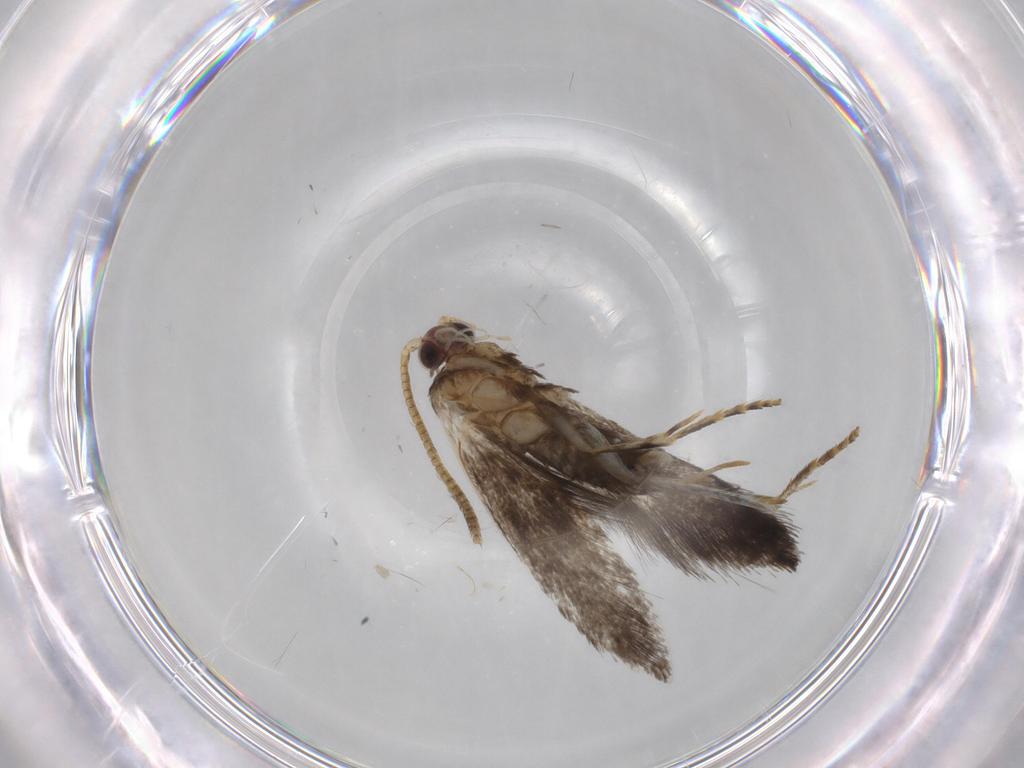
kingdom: Animalia
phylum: Arthropoda
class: Insecta
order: Lepidoptera
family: Tineidae
